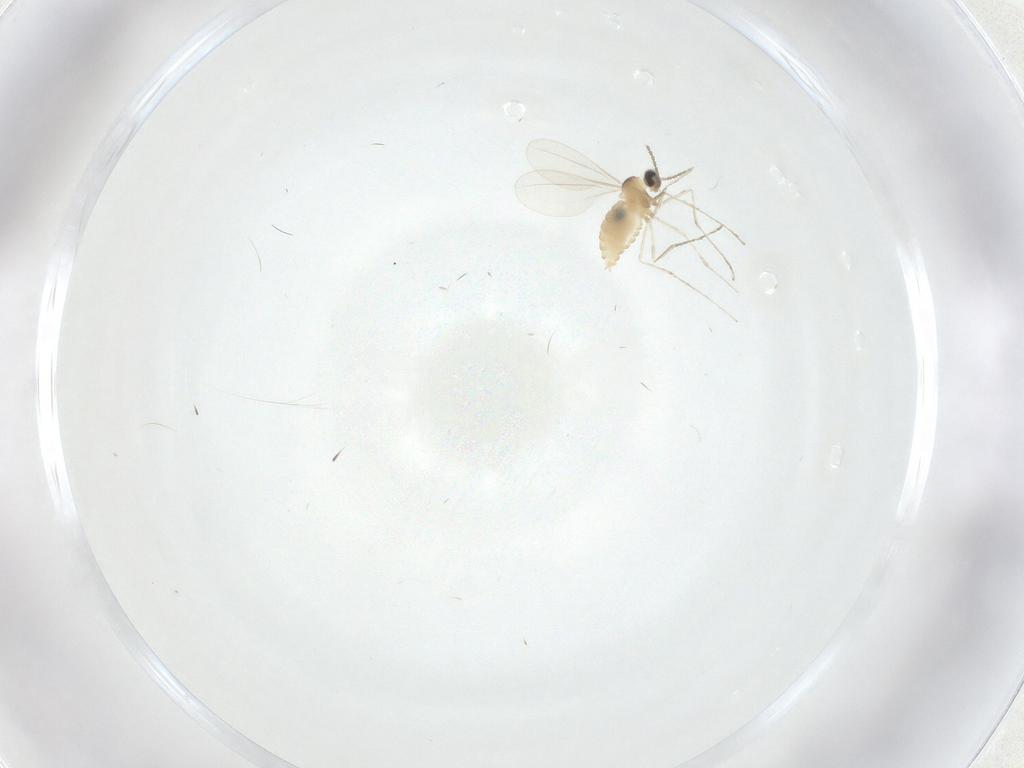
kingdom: Animalia
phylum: Arthropoda
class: Insecta
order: Diptera
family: Cecidomyiidae
